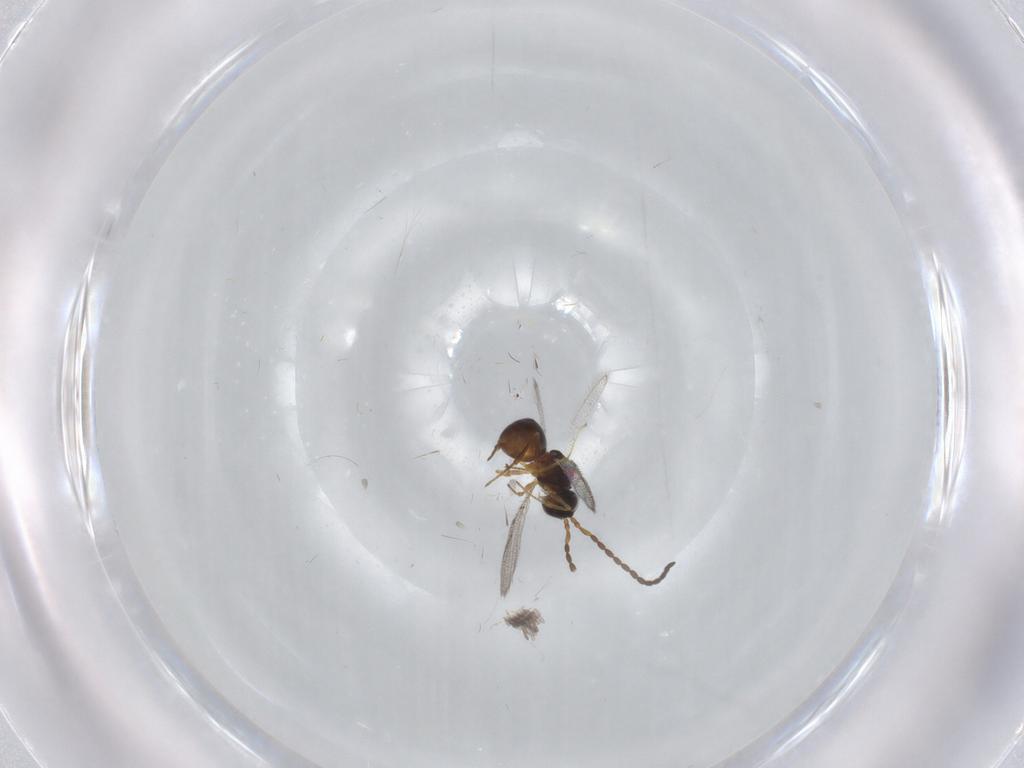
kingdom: Animalia
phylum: Arthropoda
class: Insecta
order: Hymenoptera
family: Figitidae
